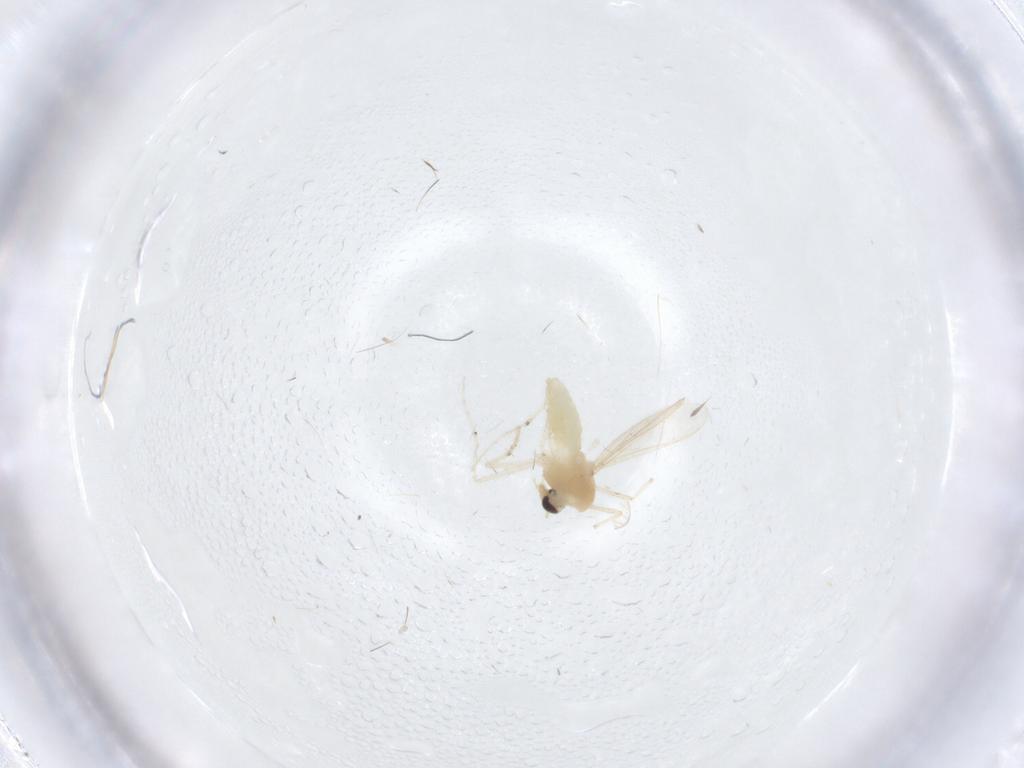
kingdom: Animalia
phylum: Arthropoda
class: Insecta
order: Diptera
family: Chironomidae
